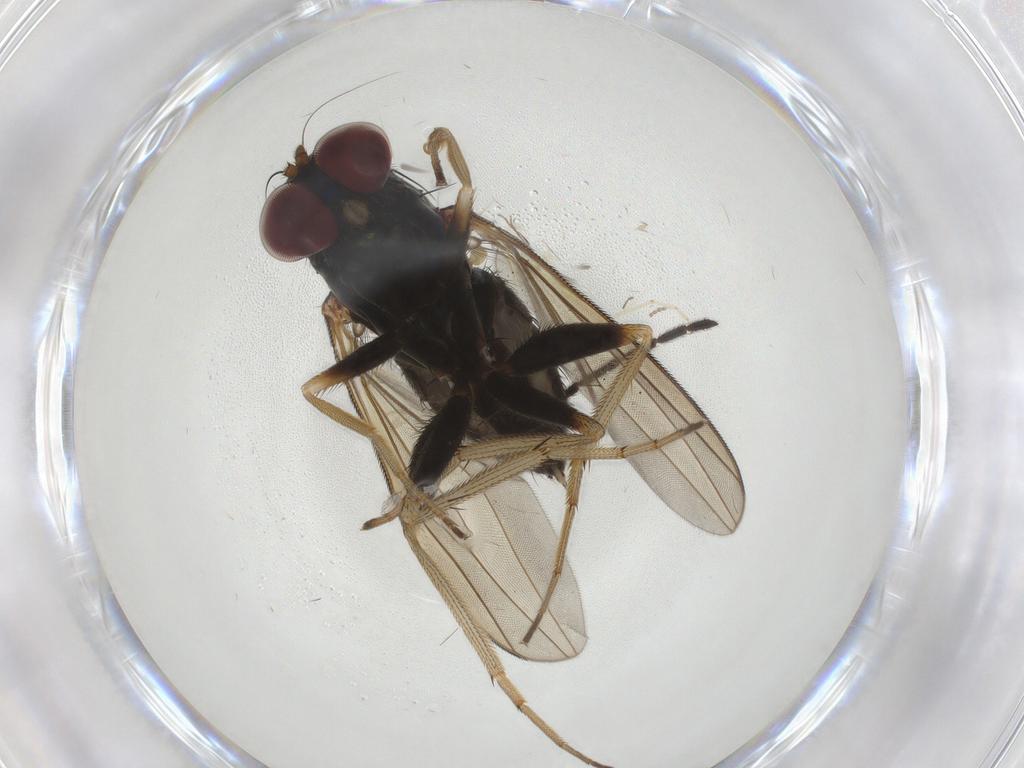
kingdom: Animalia
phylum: Arthropoda
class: Insecta
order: Diptera
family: Dolichopodidae
